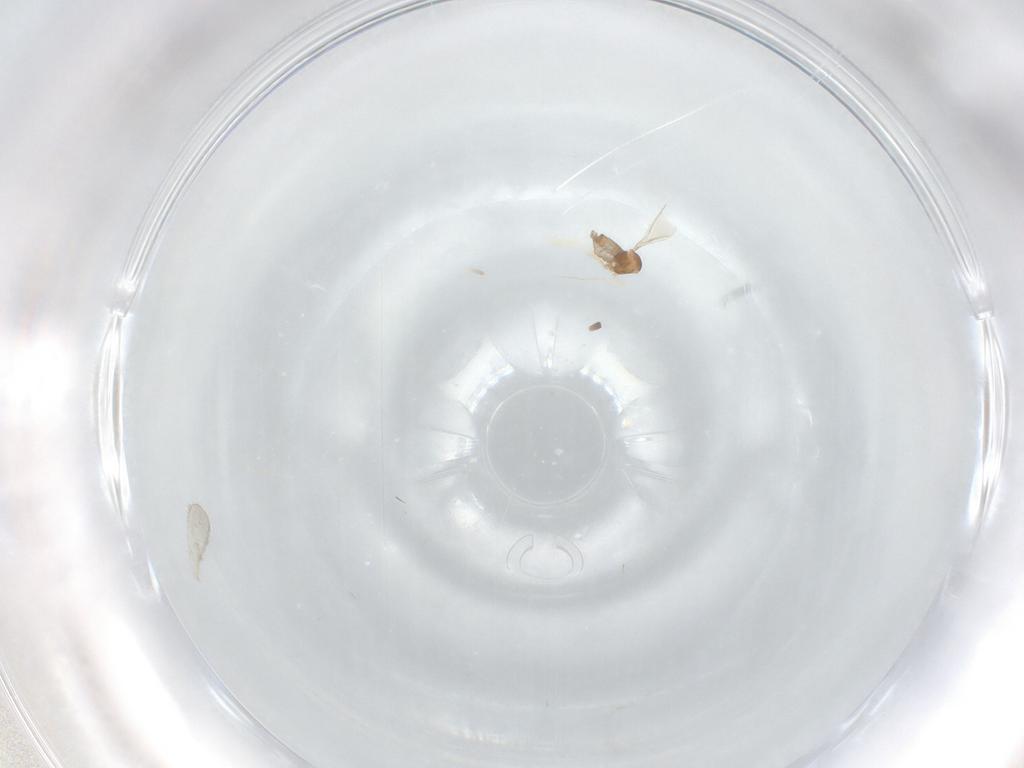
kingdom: Animalia
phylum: Arthropoda
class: Insecta
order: Diptera
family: Cecidomyiidae
